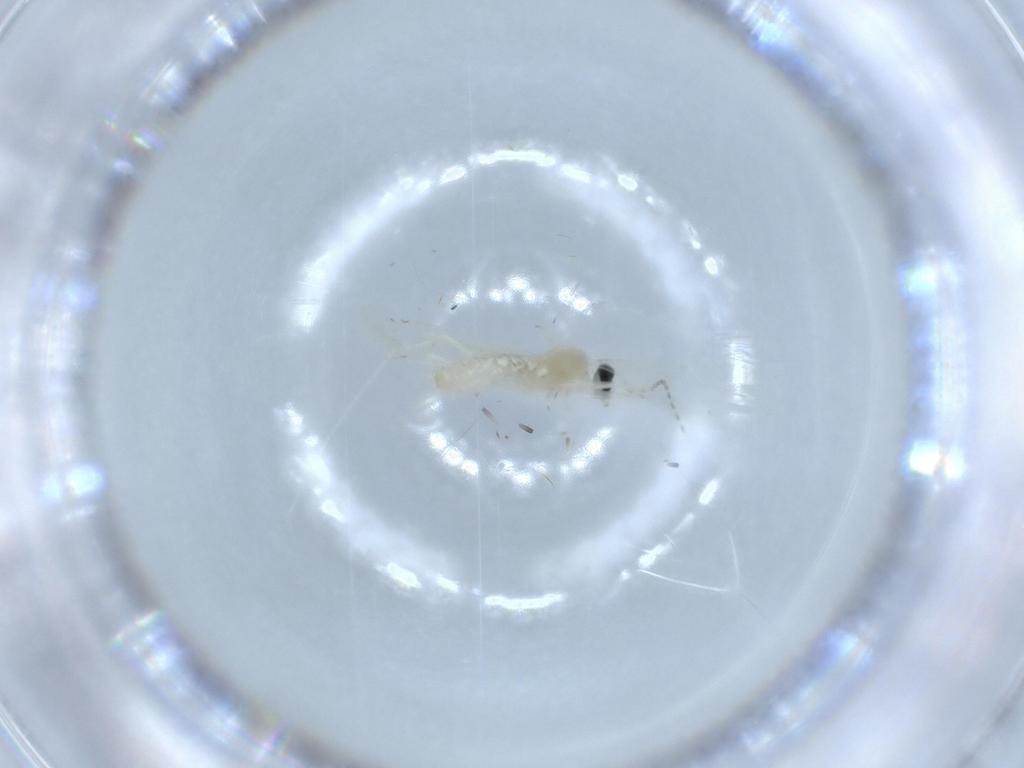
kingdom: Animalia
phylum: Arthropoda
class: Insecta
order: Diptera
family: Cecidomyiidae
